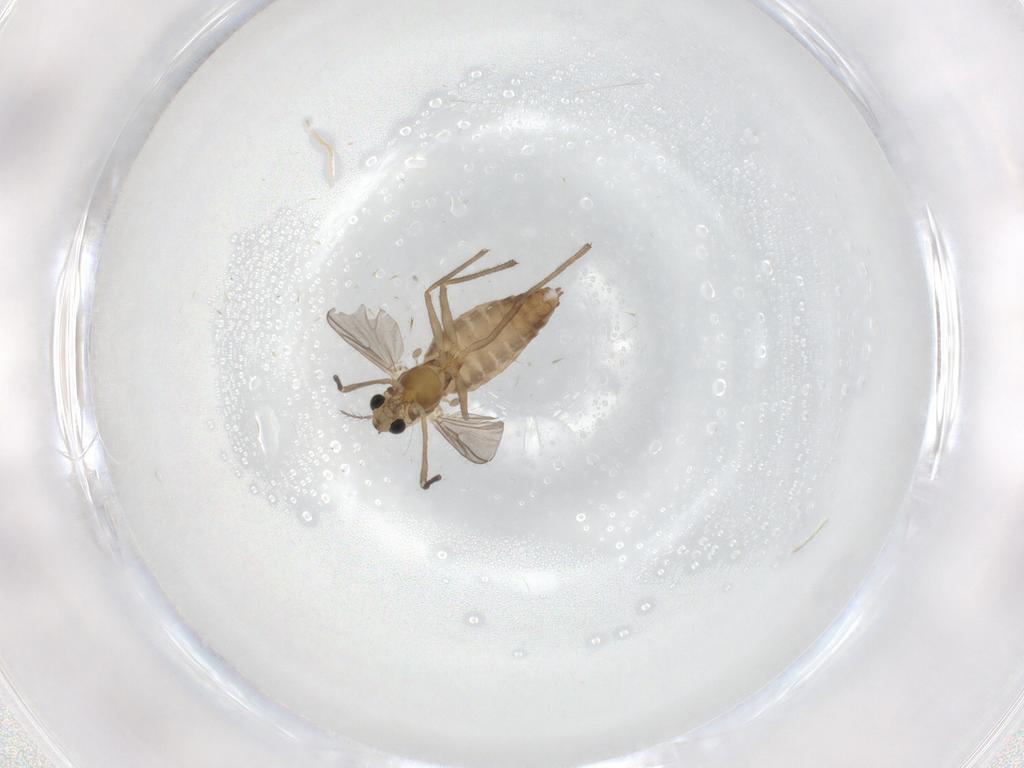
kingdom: Animalia
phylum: Arthropoda
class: Insecta
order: Diptera
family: Chironomidae
